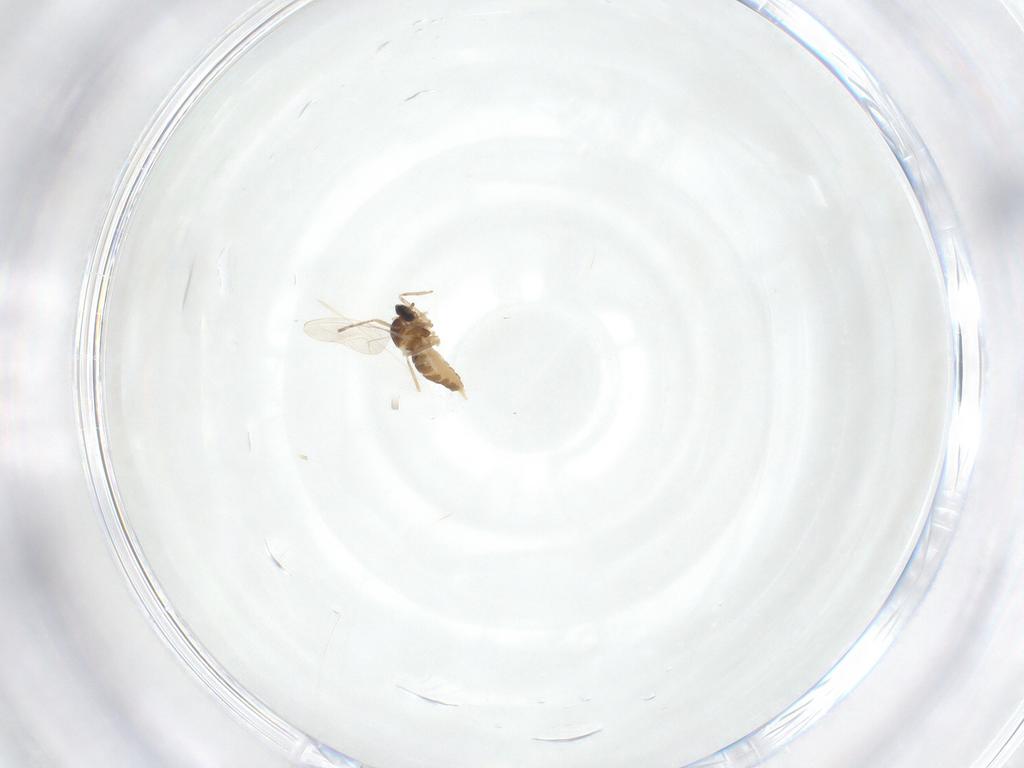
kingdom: Animalia
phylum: Arthropoda
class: Insecta
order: Diptera
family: Cecidomyiidae
